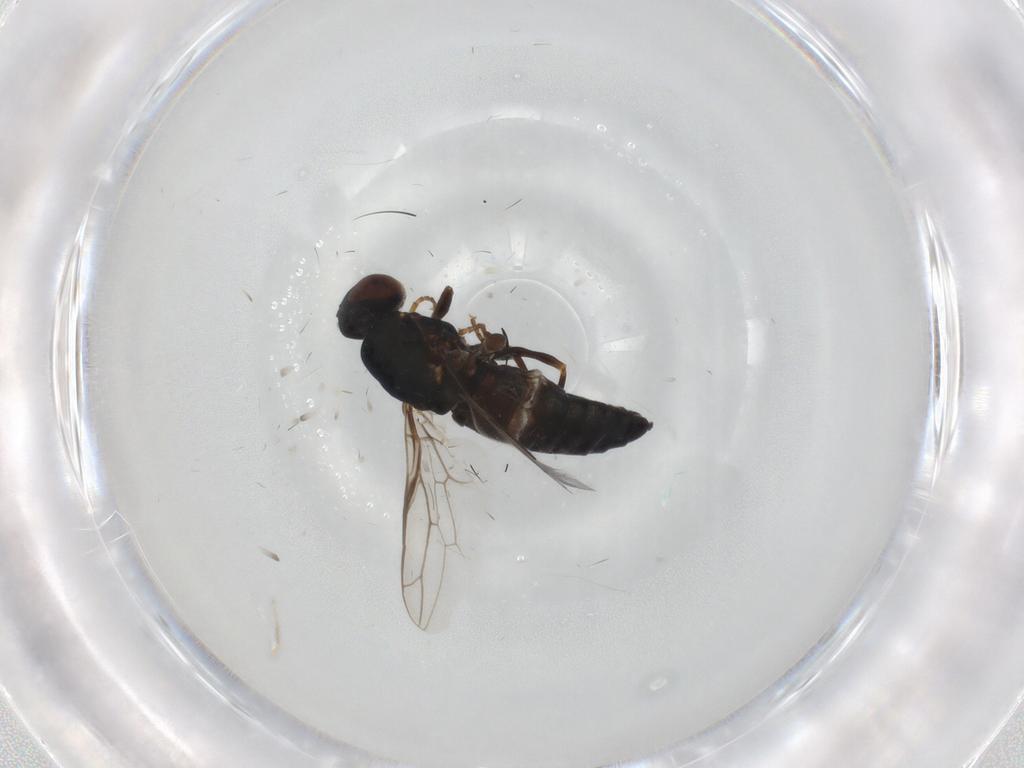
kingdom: Animalia
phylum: Arthropoda
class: Insecta
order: Diptera
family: Scenopinidae
